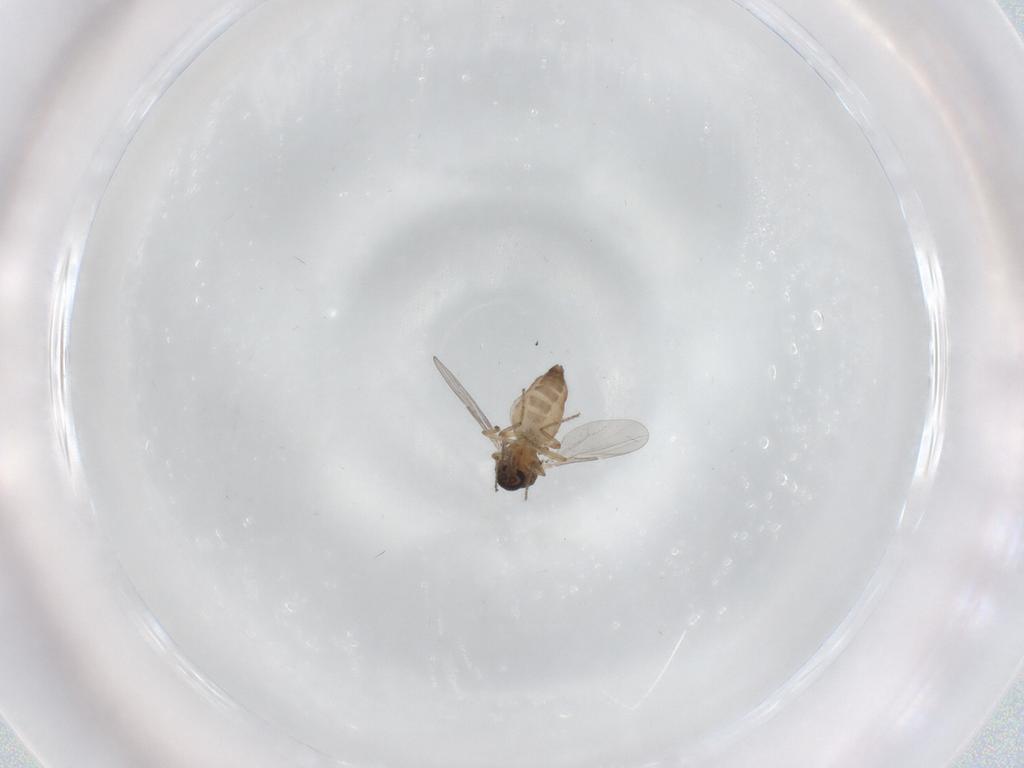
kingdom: Animalia
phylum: Arthropoda
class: Insecta
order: Diptera
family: Ceratopogonidae
